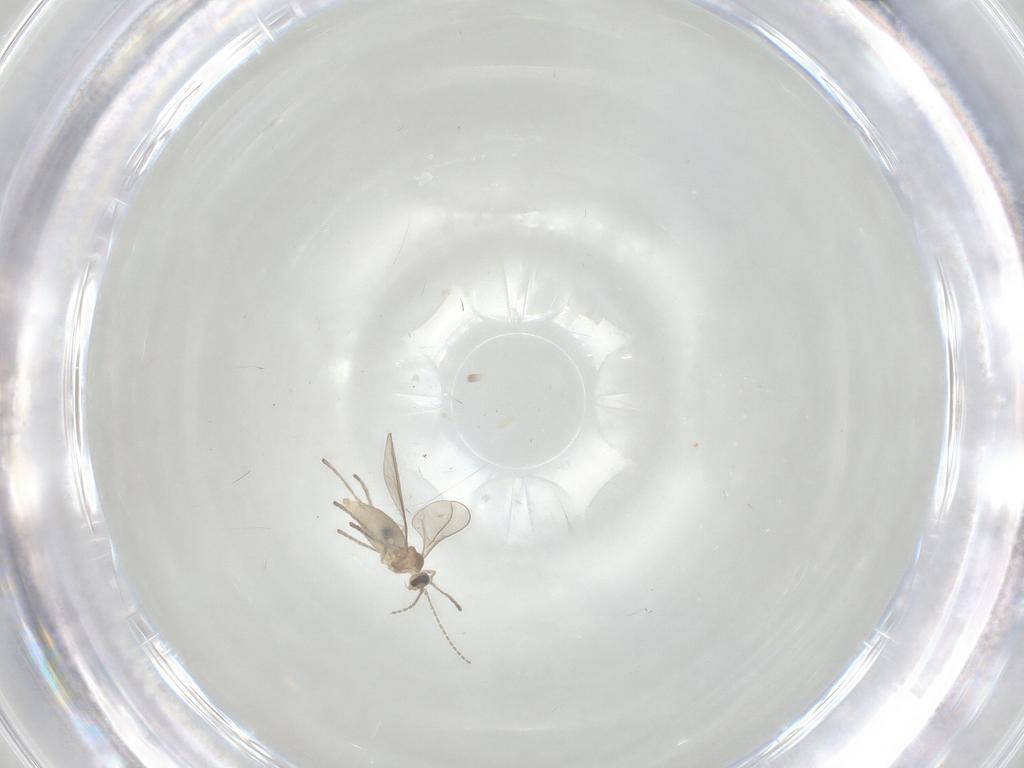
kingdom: Animalia
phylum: Arthropoda
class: Insecta
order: Diptera
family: Cecidomyiidae
